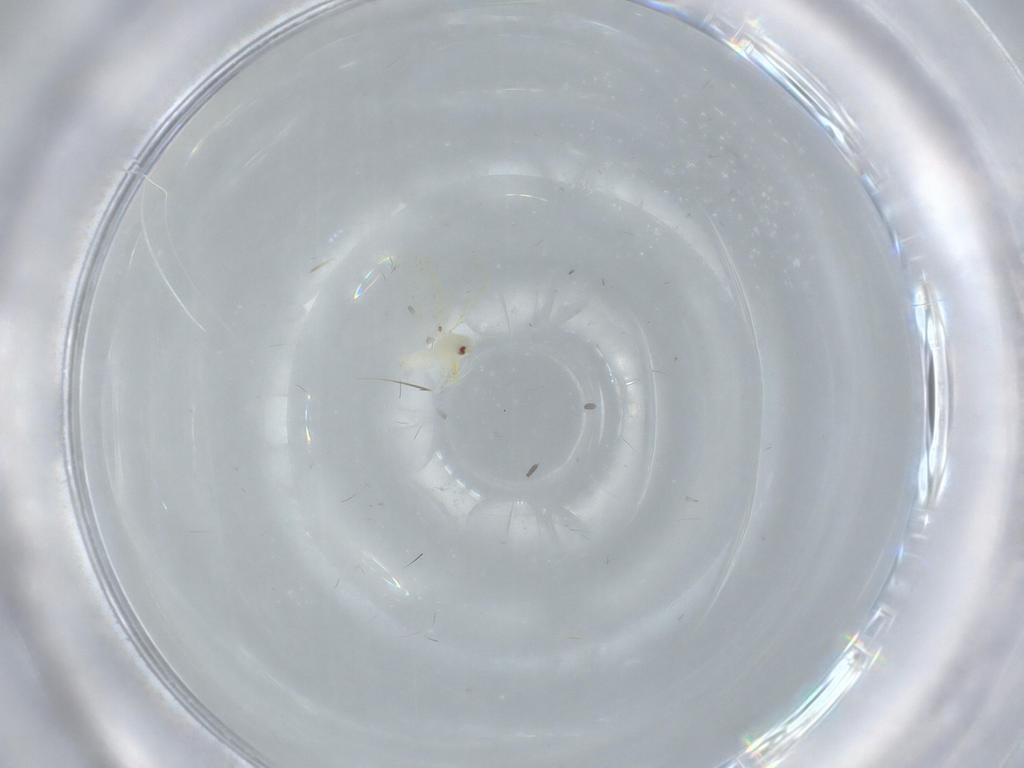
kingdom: Animalia
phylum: Arthropoda
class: Insecta
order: Hemiptera
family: Aleyrodidae
